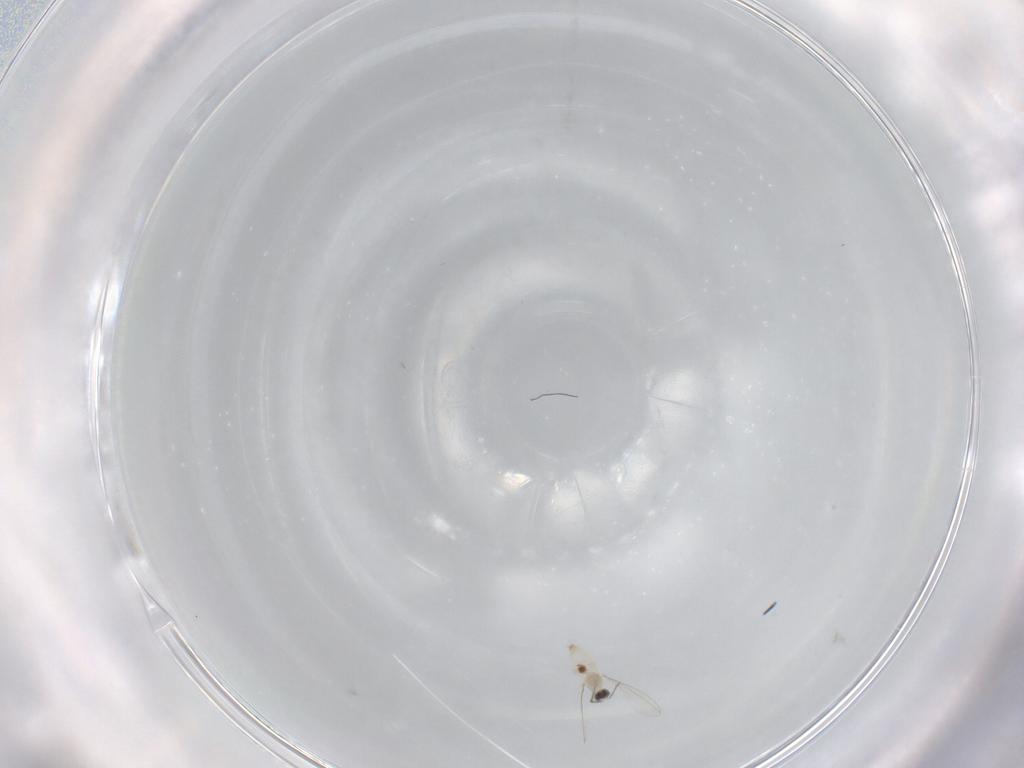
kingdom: Animalia
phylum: Arthropoda
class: Insecta
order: Diptera
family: Cecidomyiidae
